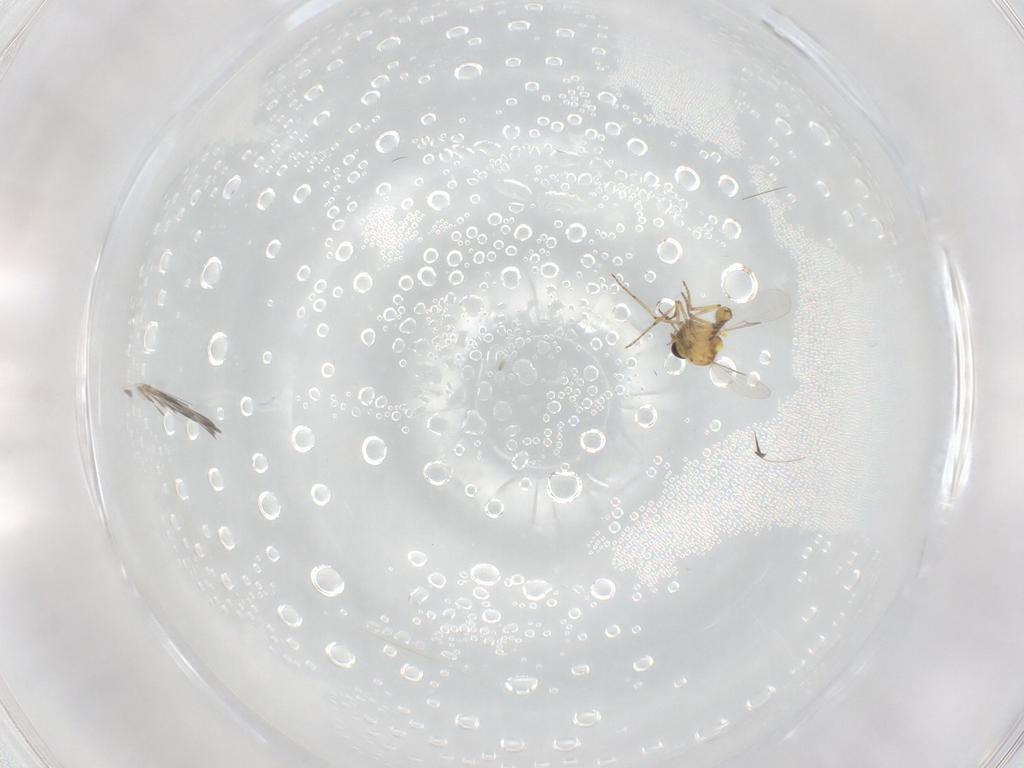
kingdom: Animalia
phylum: Arthropoda
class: Insecta
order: Diptera
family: Ceratopogonidae
